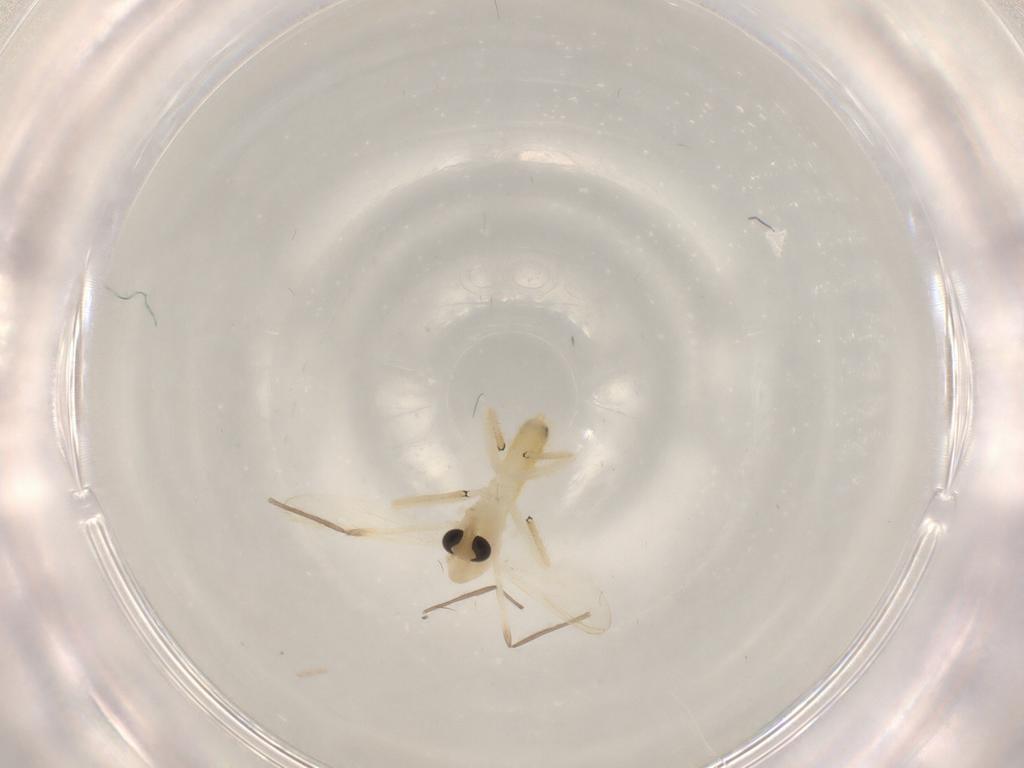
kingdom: Animalia
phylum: Arthropoda
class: Insecta
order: Diptera
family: Chironomidae
